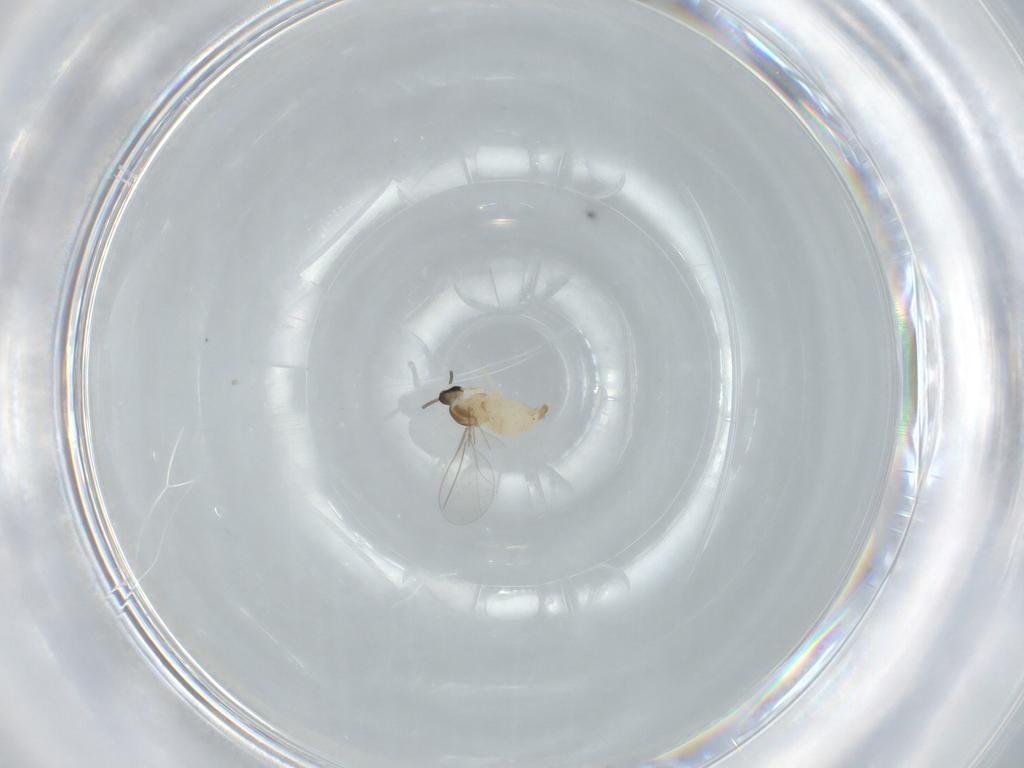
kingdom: Animalia
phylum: Arthropoda
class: Insecta
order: Diptera
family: Cecidomyiidae
